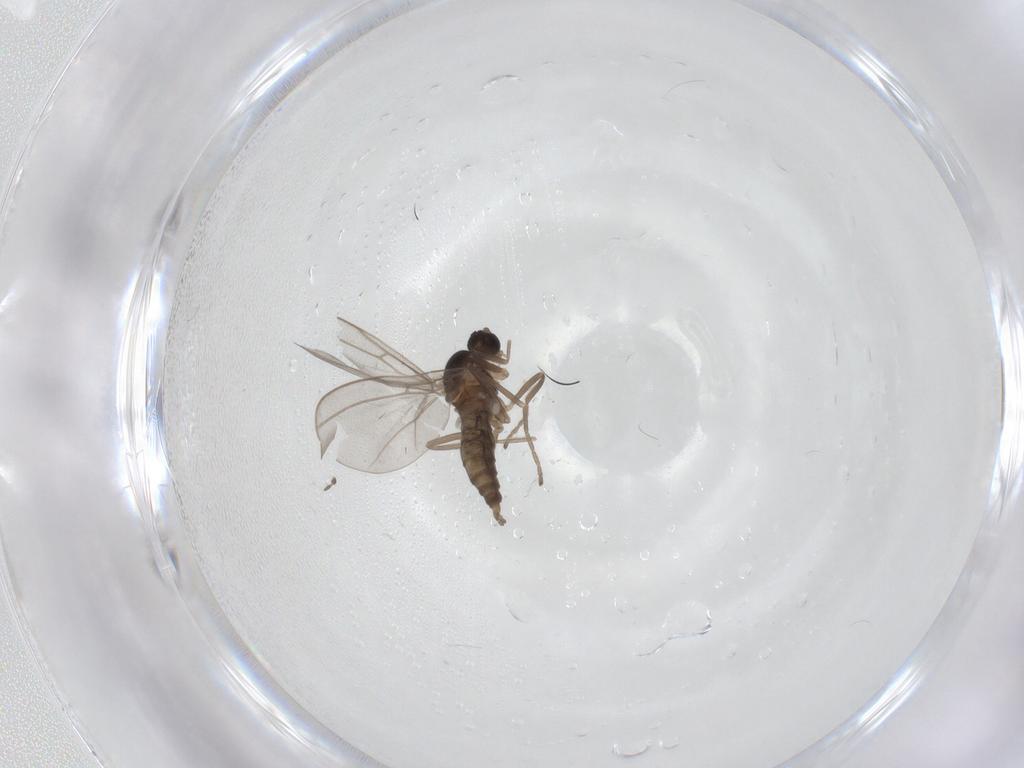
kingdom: Animalia
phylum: Arthropoda
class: Insecta
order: Diptera
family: Cecidomyiidae
